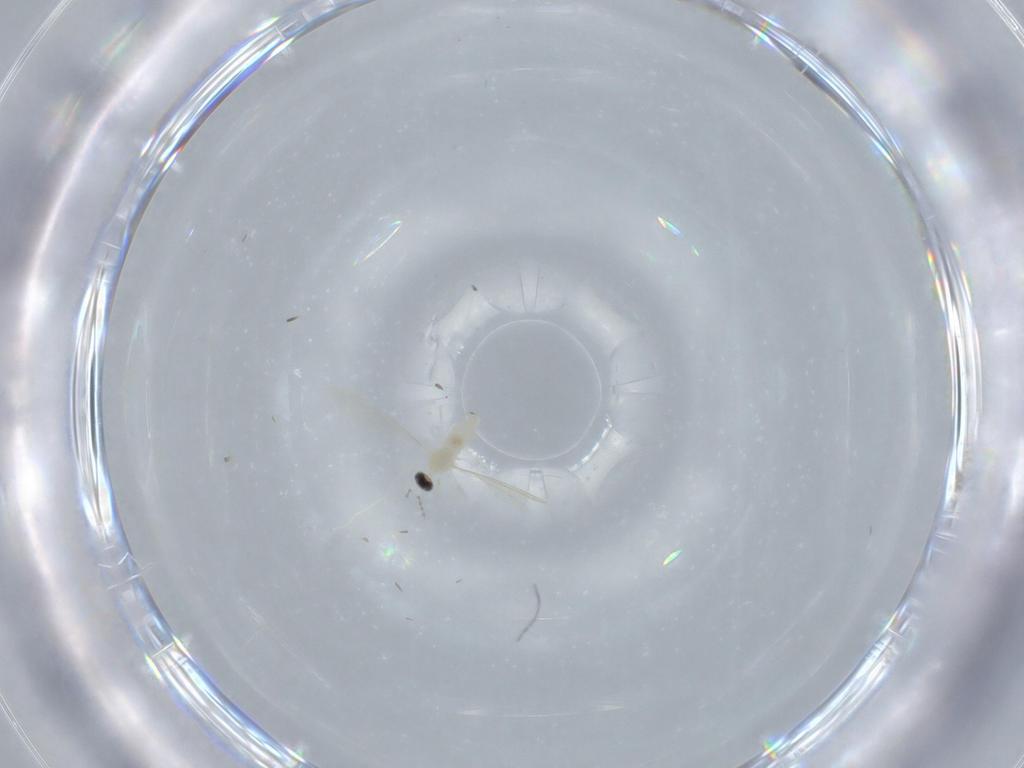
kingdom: Animalia
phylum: Arthropoda
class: Insecta
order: Diptera
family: Cecidomyiidae
